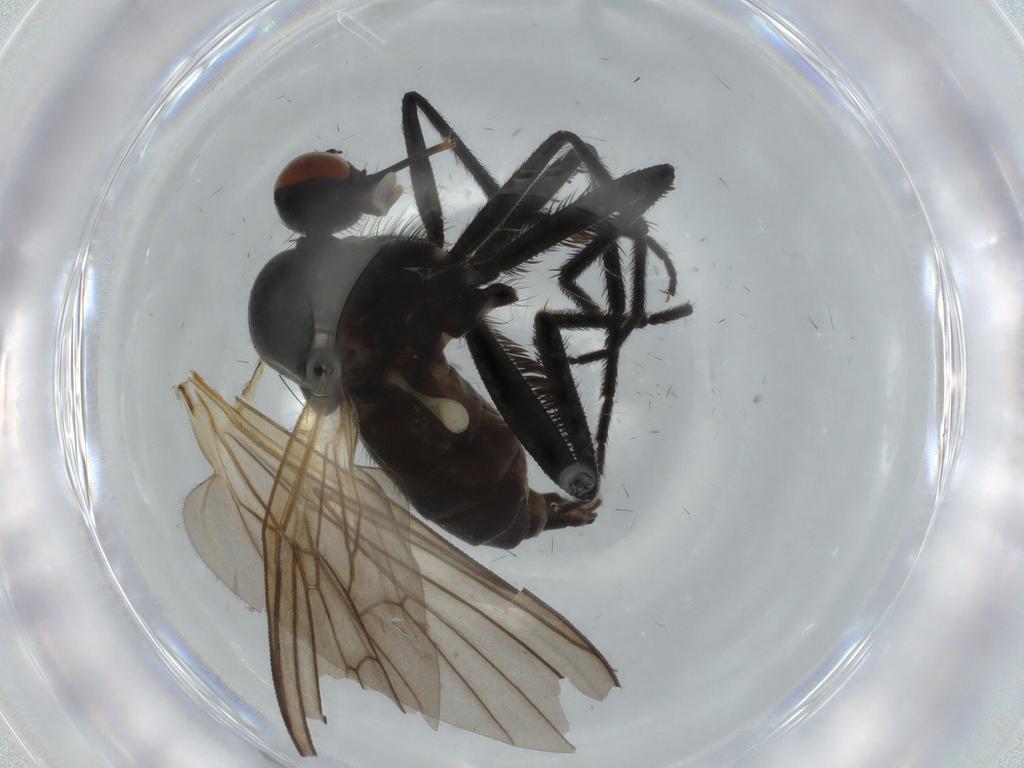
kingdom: Animalia
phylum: Arthropoda
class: Insecta
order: Diptera
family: Empididae
